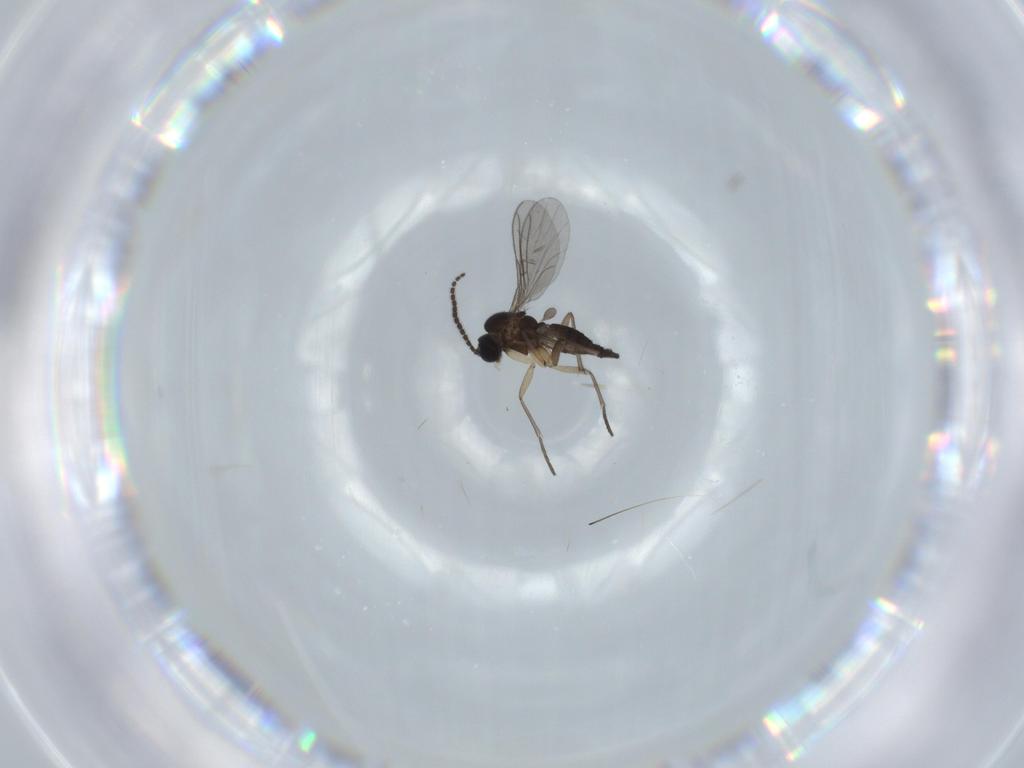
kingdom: Animalia
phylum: Arthropoda
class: Insecta
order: Diptera
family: Sciaridae
